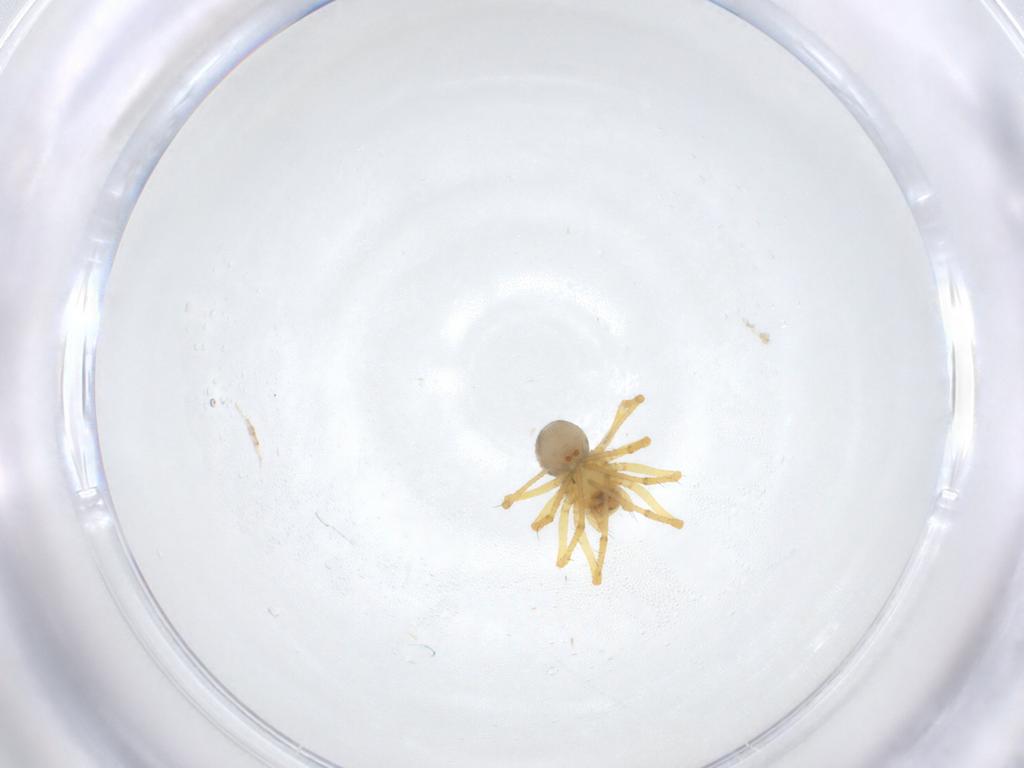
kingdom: Animalia
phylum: Arthropoda
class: Arachnida
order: Araneae
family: Theridiidae
